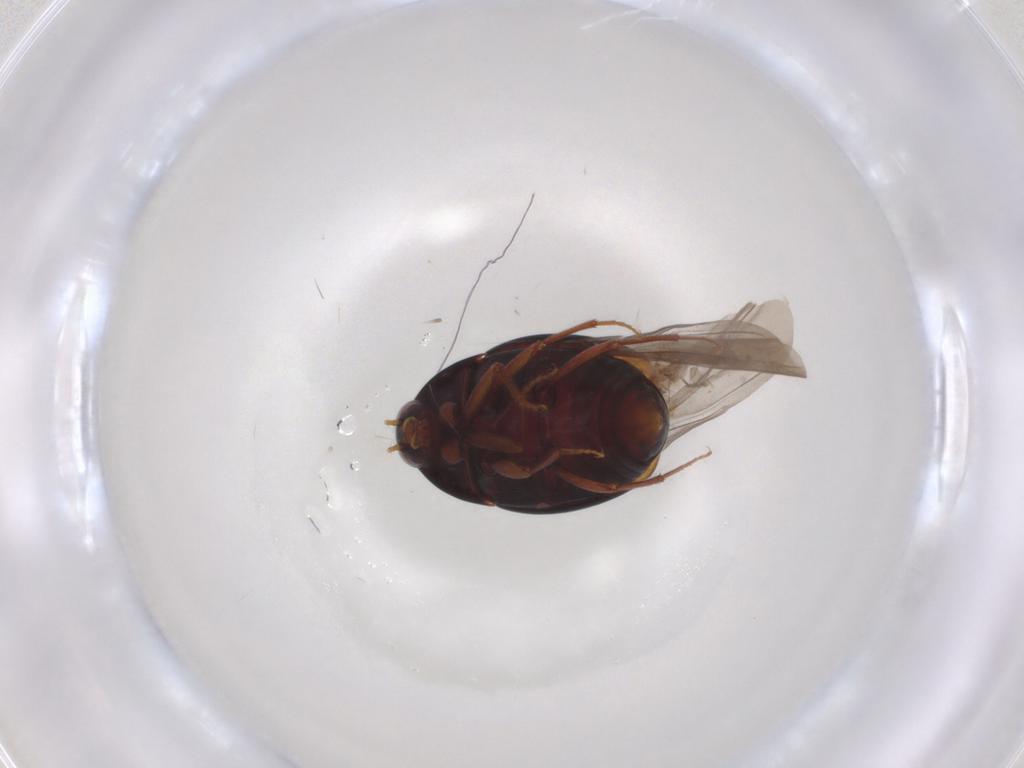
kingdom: Animalia
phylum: Arthropoda
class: Insecta
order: Coleoptera
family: Staphylinidae
